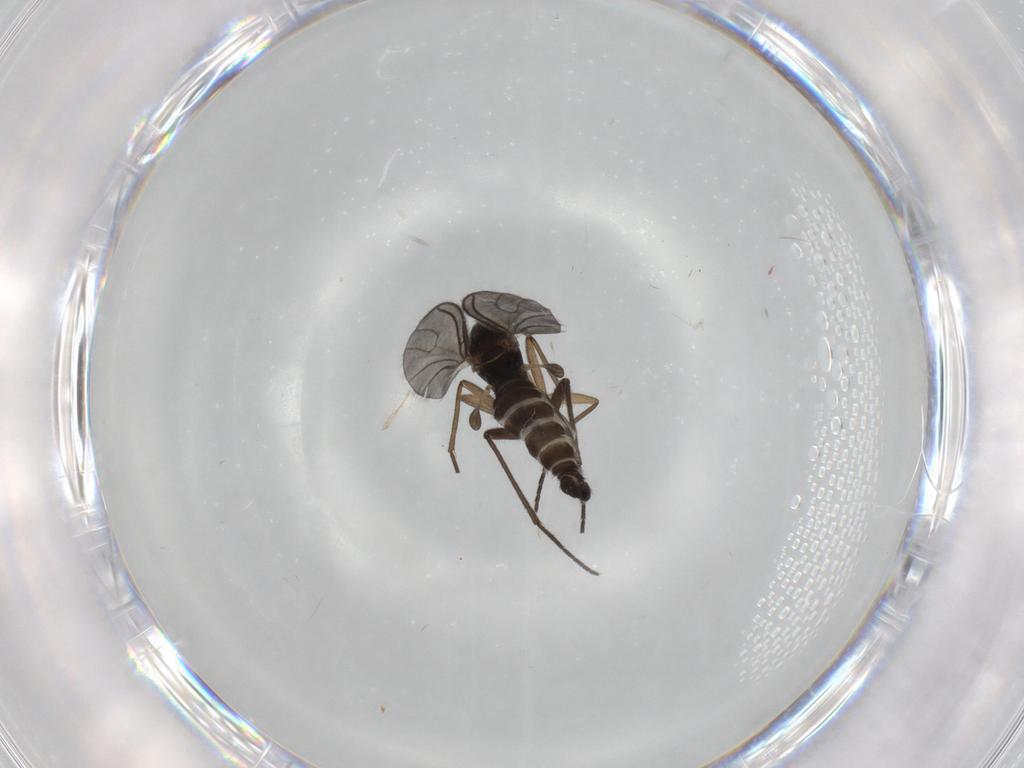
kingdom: Animalia
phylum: Arthropoda
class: Insecta
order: Diptera
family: Sciaridae
